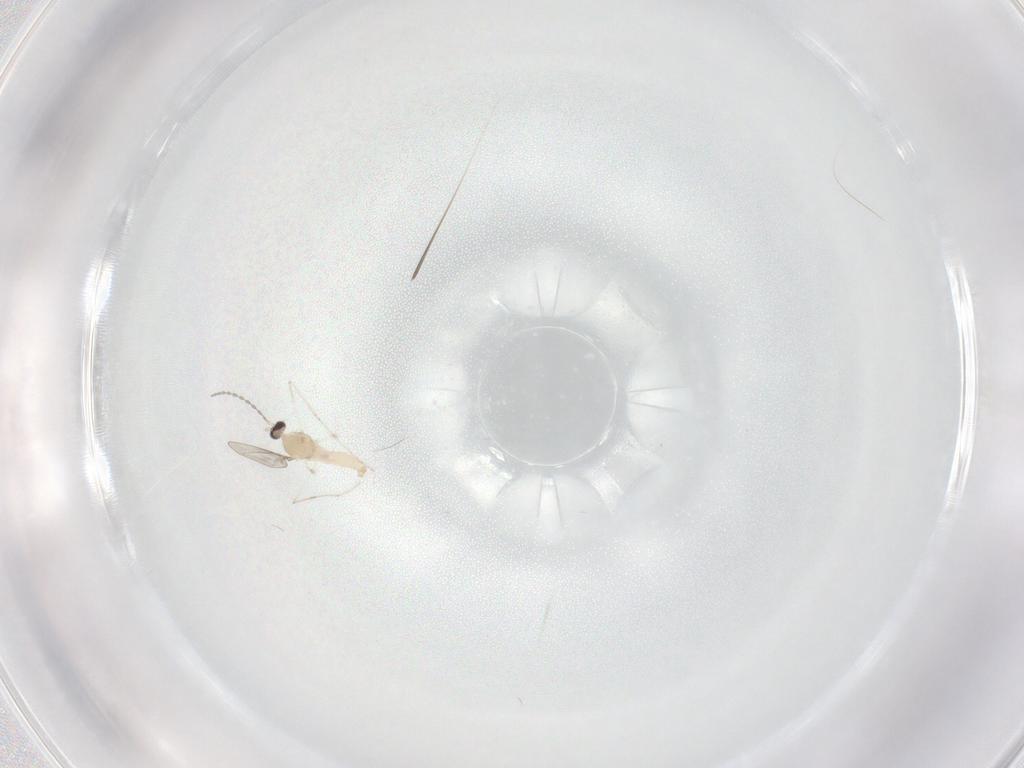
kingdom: Animalia
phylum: Arthropoda
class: Insecta
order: Diptera
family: Cecidomyiidae
